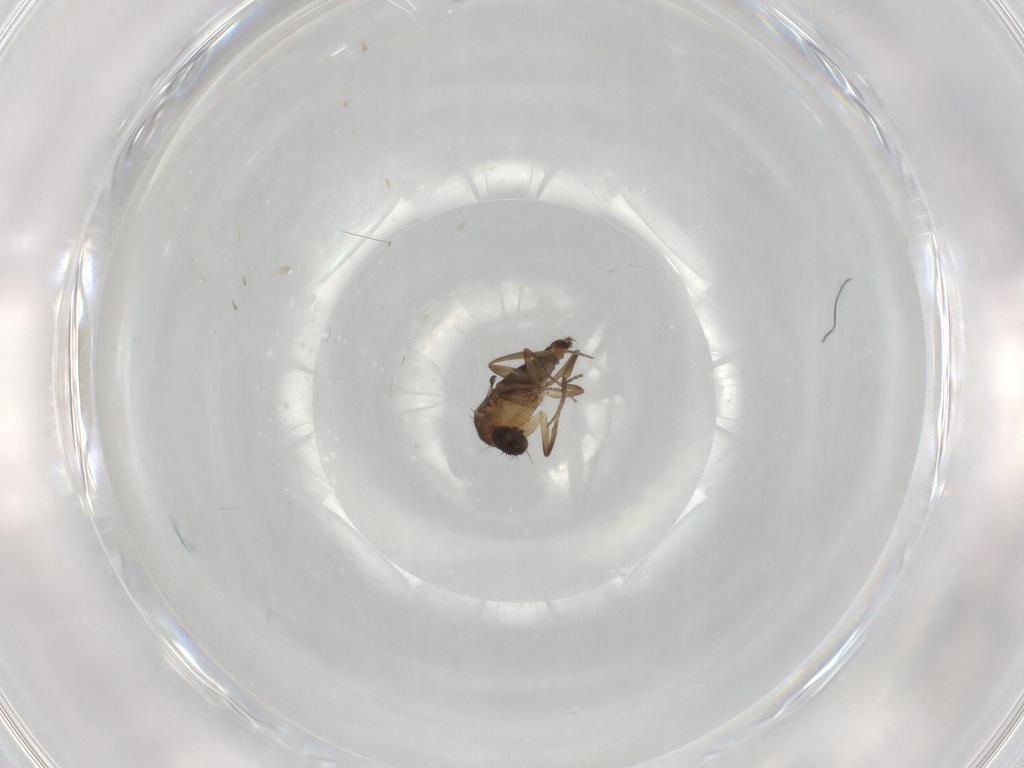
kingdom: Animalia
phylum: Arthropoda
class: Insecta
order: Diptera
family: Phoridae
